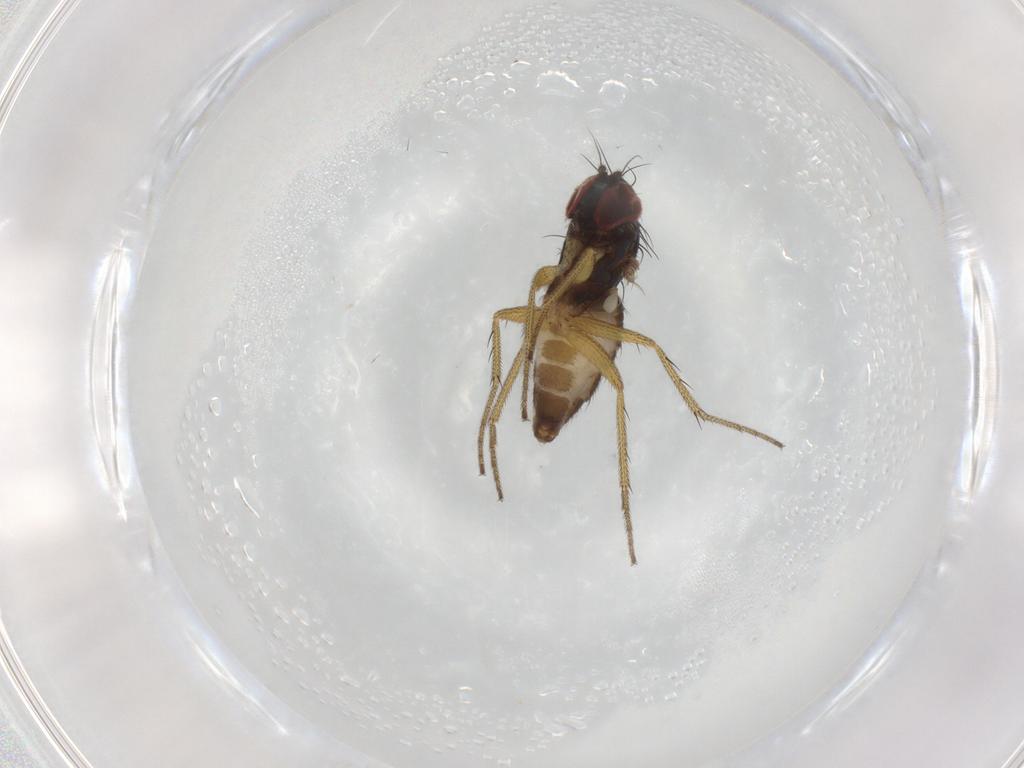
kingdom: Animalia
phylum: Arthropoda
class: Insecta
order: Diptera
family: Dolichopodidae
